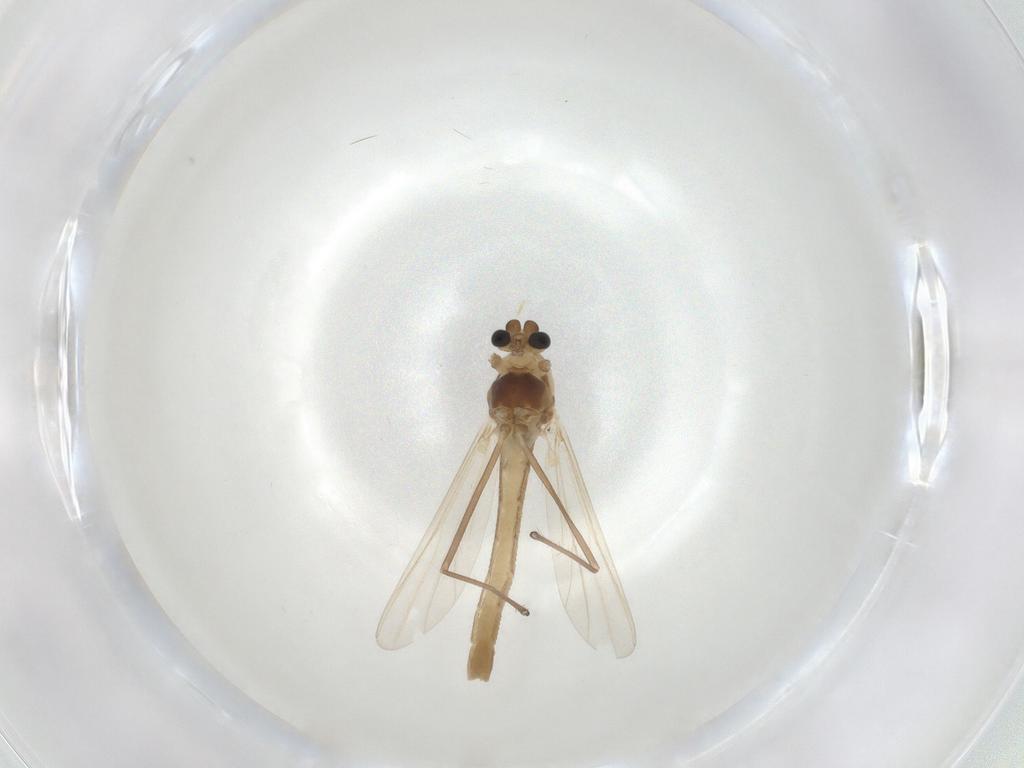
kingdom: Animalia
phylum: Arthropoda
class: Insecta
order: Diptera
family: Chironomidae
